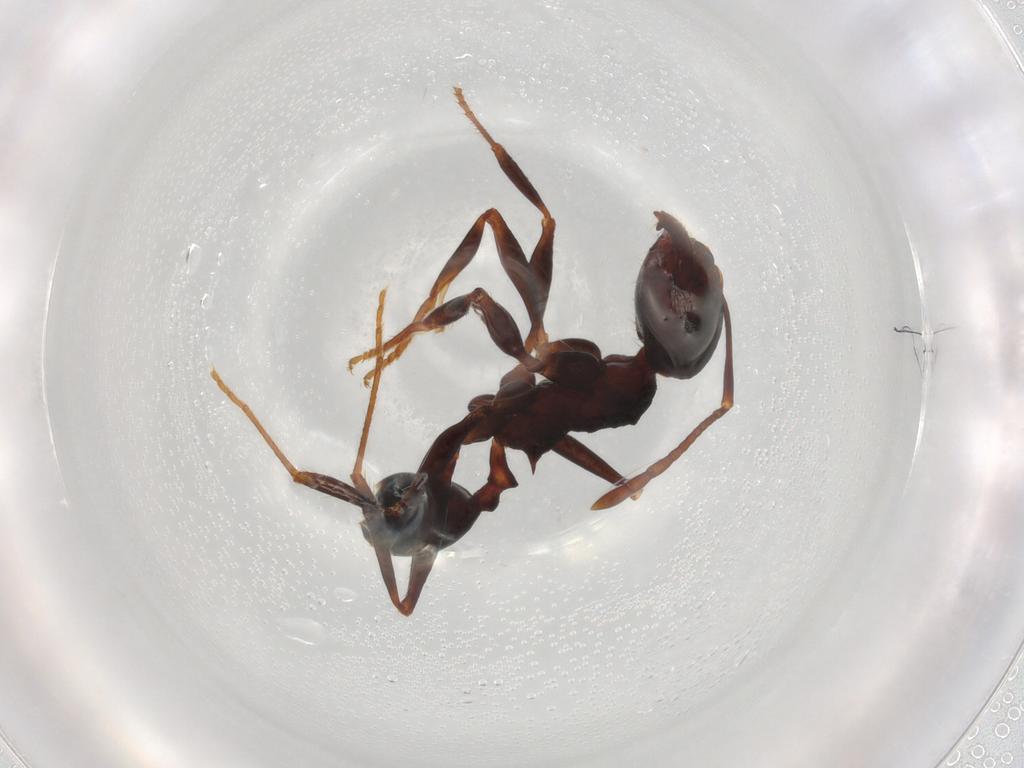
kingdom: Animalia
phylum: Arthropoda
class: Insecta
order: Hymenoptera
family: Formicidae
